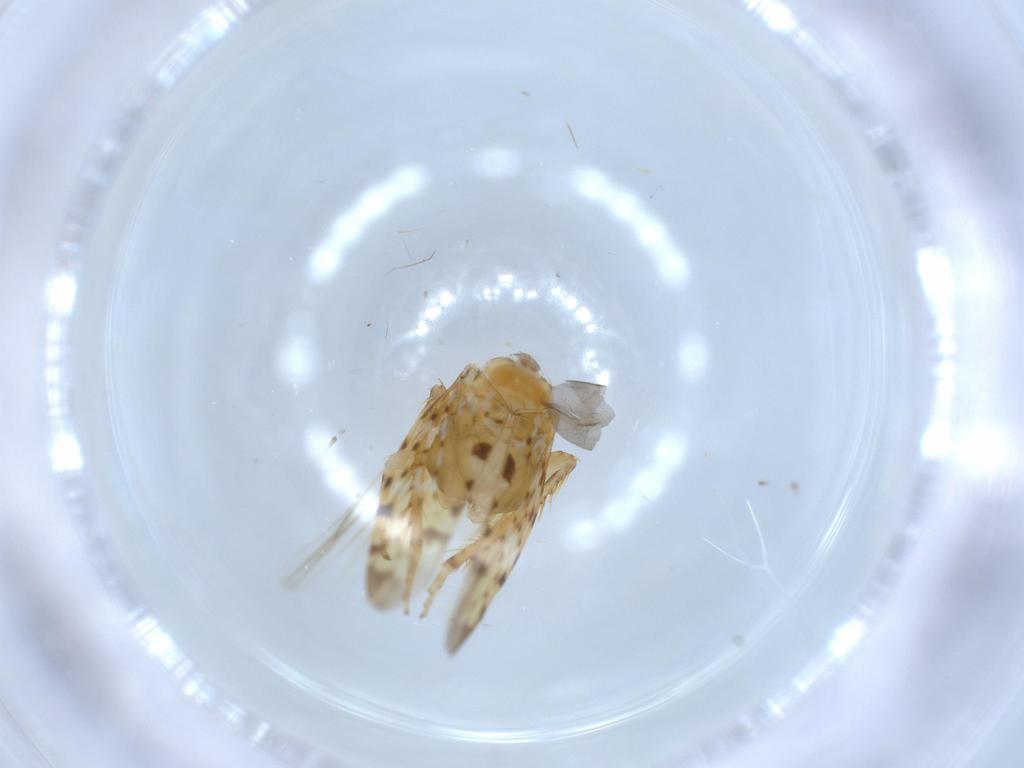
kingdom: Animalia
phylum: Arthropoda
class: Insecta
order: Hemiptera
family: Cicadellidae
